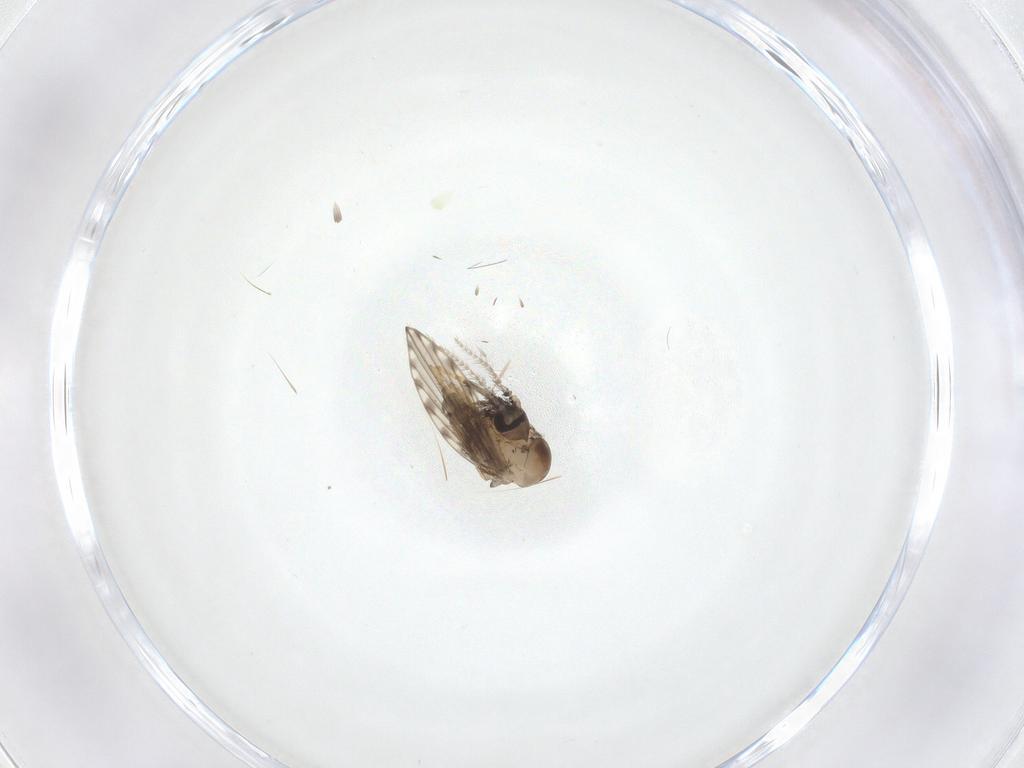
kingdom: Animalia
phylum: Arthropoda
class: Insecta
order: Diptera
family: Psychodidae
